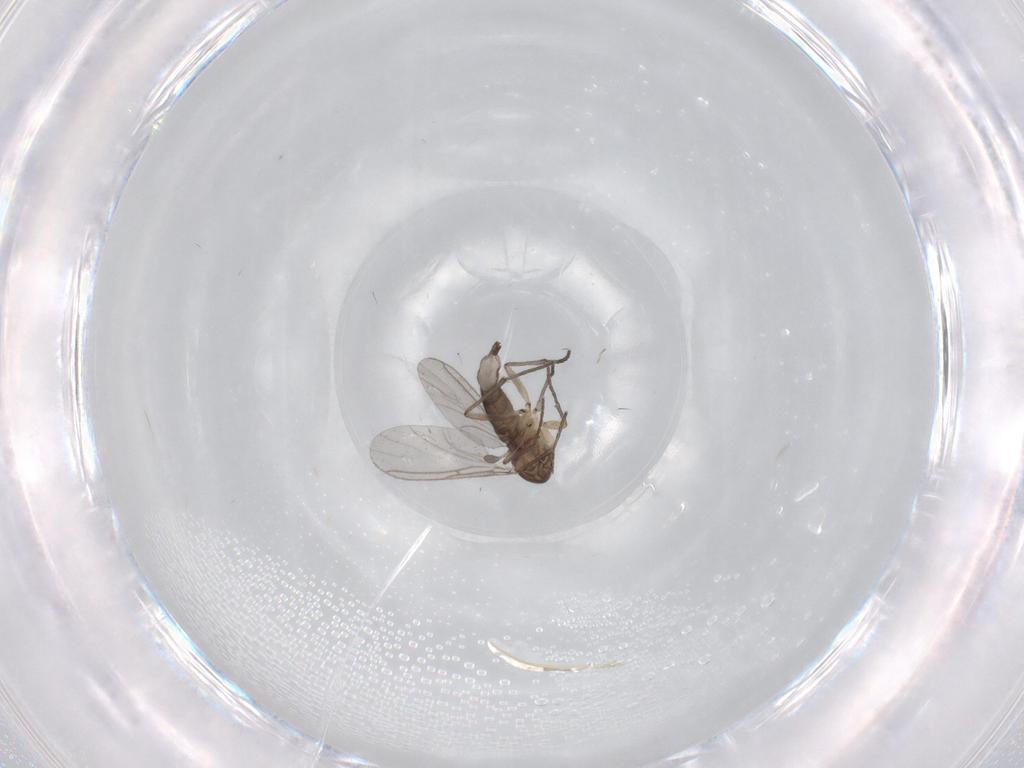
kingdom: Animalia
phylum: Arthropoda
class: Insecta
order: Diptera
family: Sciaridae
